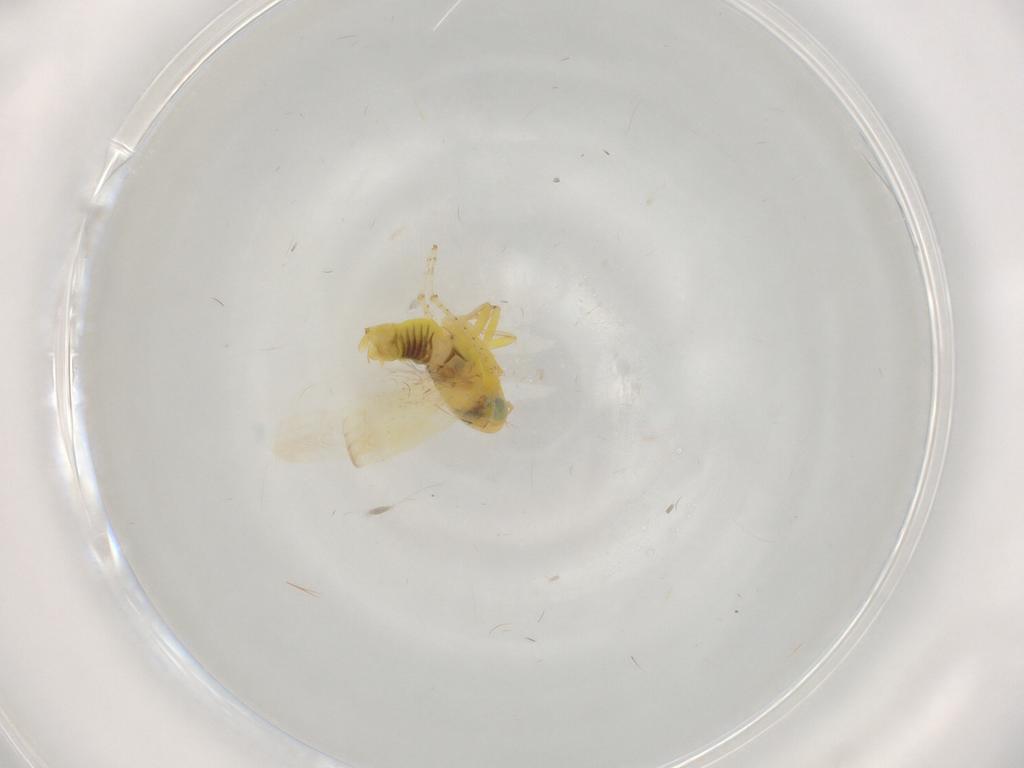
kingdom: Animalia
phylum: Arthropoda
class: Insecta
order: Hemiptera
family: Cicadellidae
